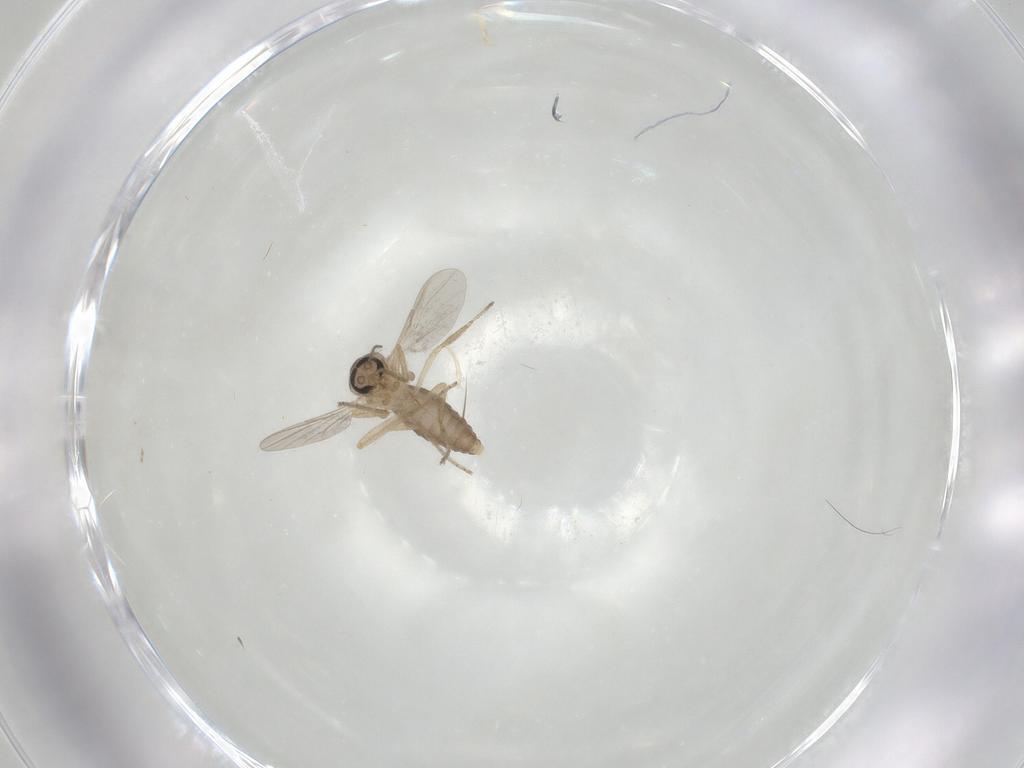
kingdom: Animalia
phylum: Arthropoda
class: Insecta
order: Diptera
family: Ceratopogonidae
